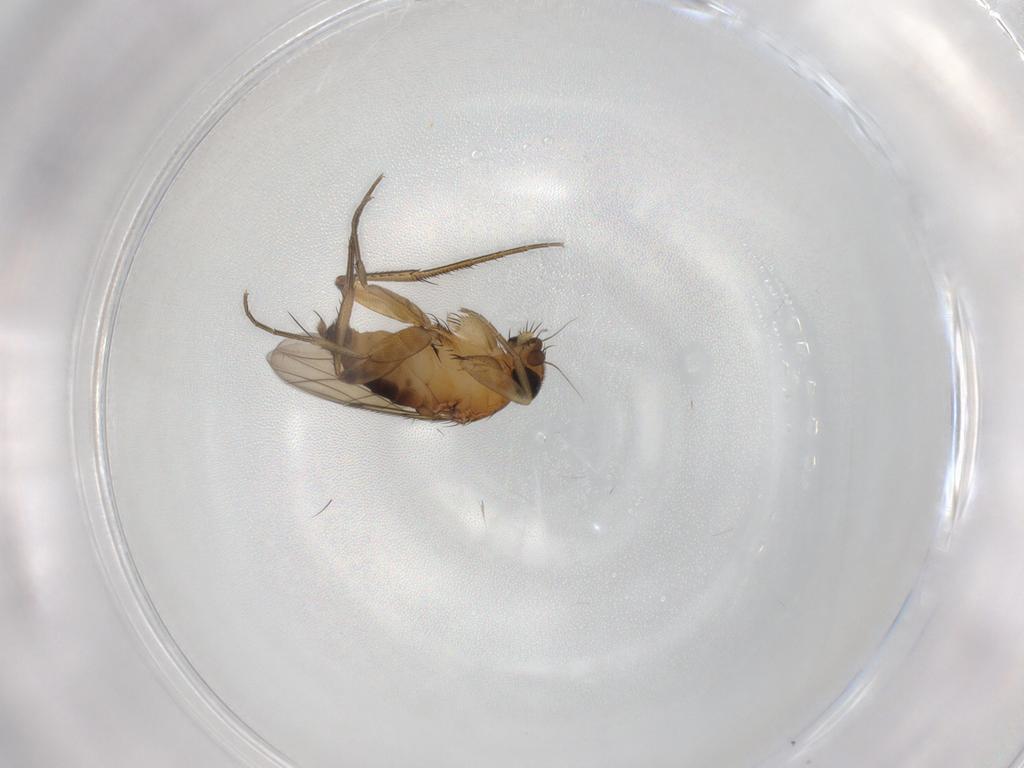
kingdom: Animalia
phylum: Arthropoda
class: Insecta
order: Diptera
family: Phoridae
